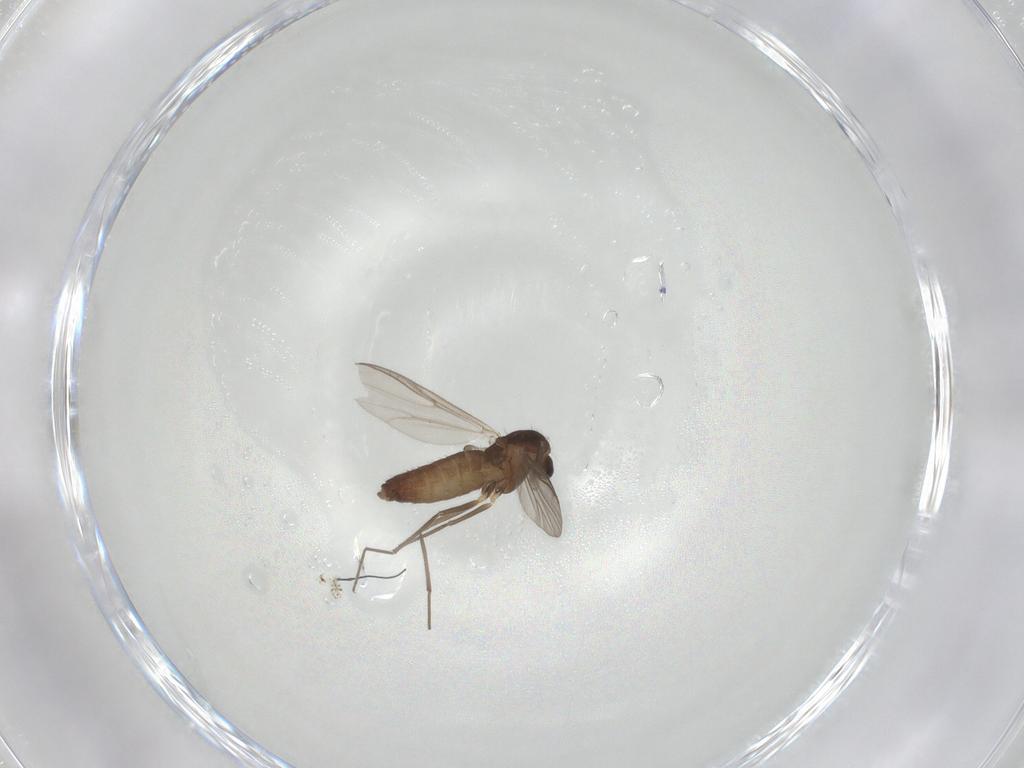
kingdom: Animalia
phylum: Arthropoda
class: Insecta
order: Diptera
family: Chironomidae
